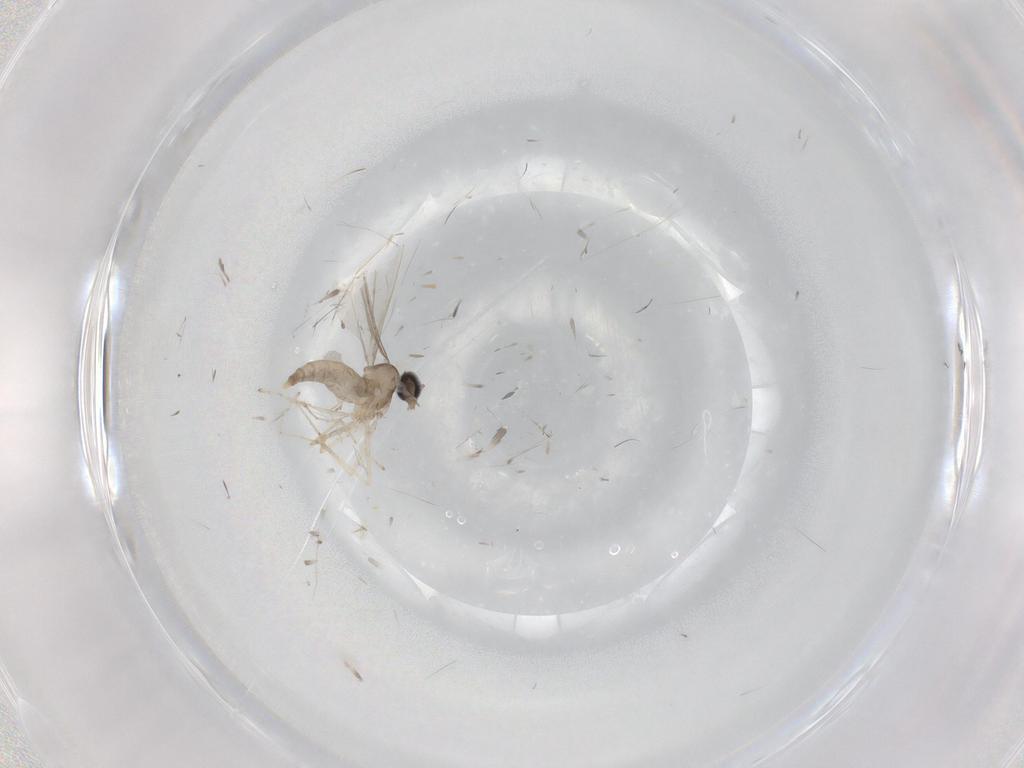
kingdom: Animalia
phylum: Arthropoda
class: Insecta
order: Diptera
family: Cecidomyiidae
